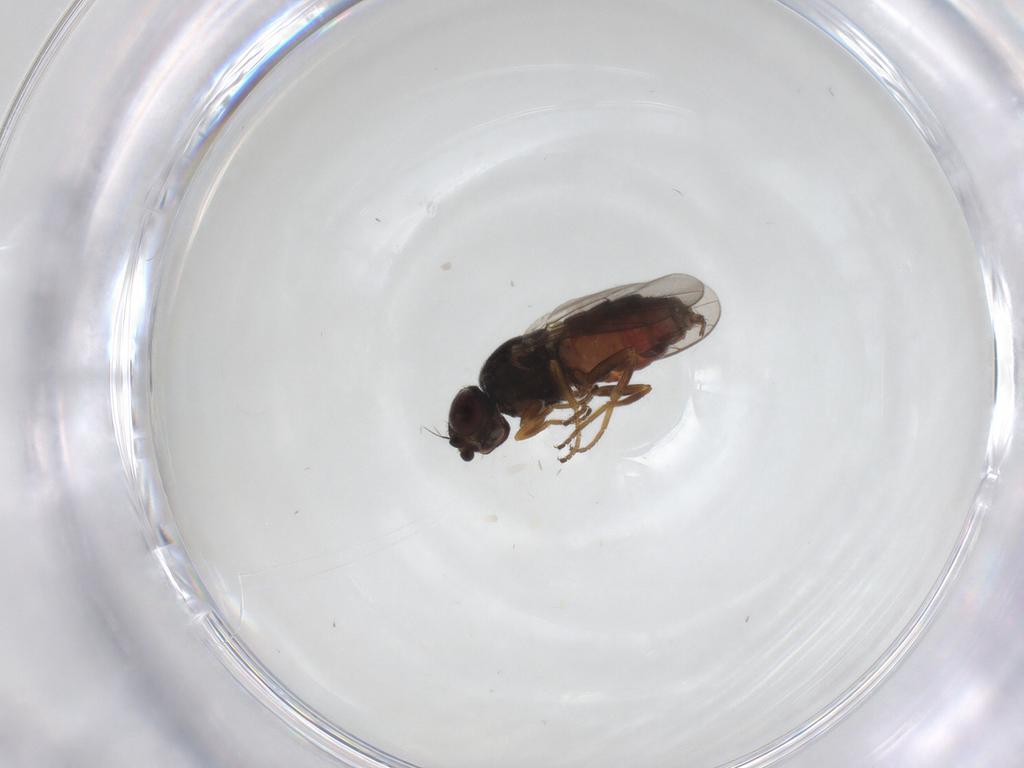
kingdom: Animalia
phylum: Arthropoda
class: Insecta
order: Diptera
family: Chloropidae
